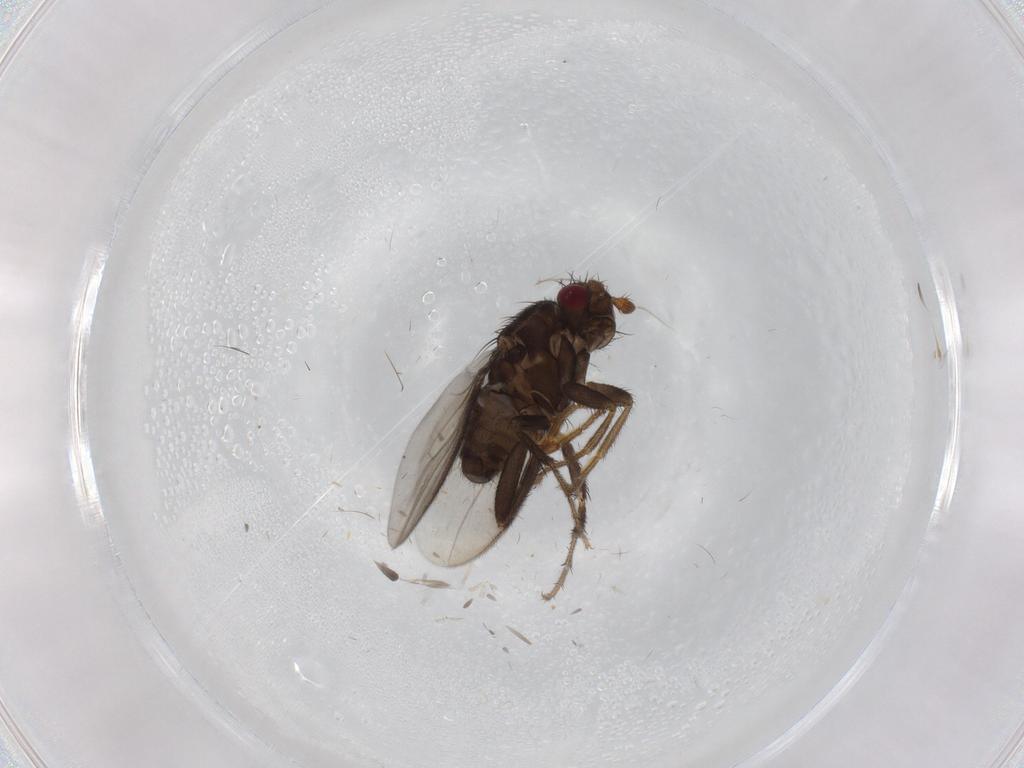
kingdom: Animalia
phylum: Arthropoda
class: Insecta
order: Diptera
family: Sphaeroceridae
